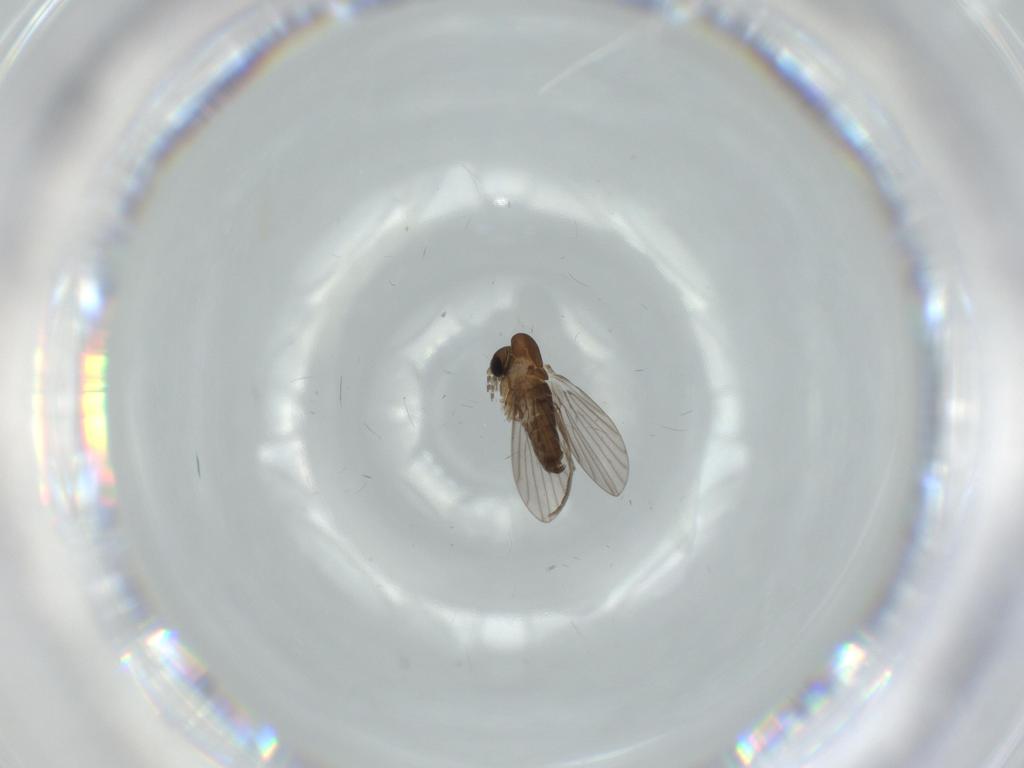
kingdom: Animalia
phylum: Arthropoda
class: Insecta
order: Diptera
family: Psychodidae
